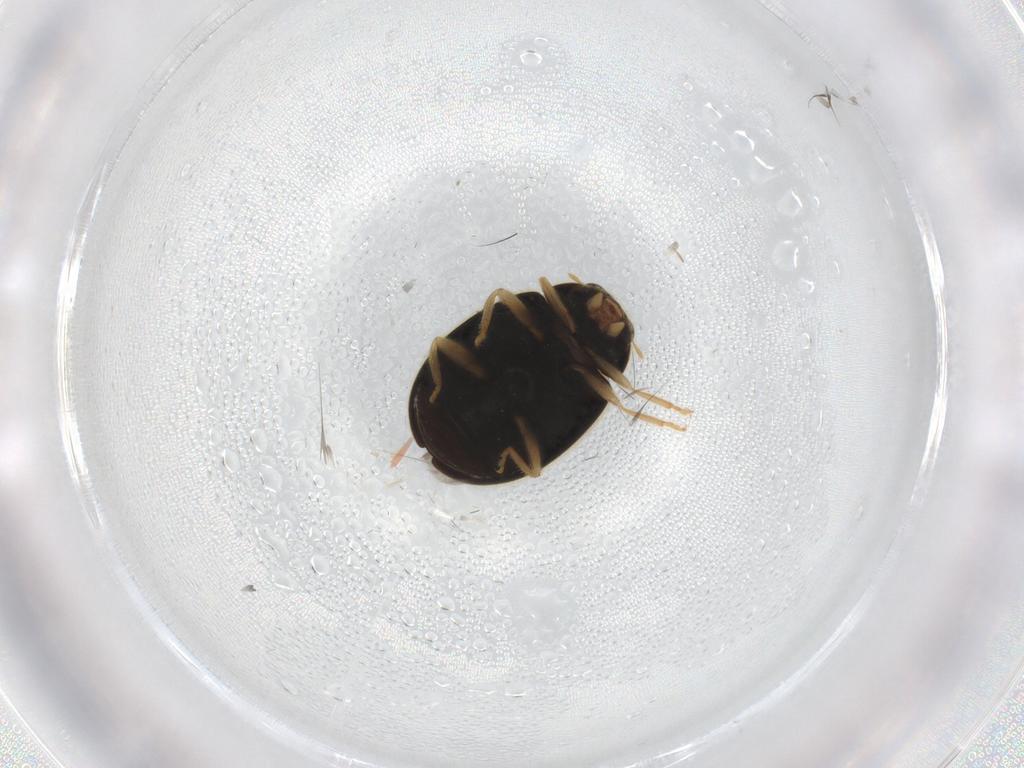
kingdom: Animalia
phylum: Arthropoda
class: Insecta
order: Coleoptera
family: Coccinellidae
